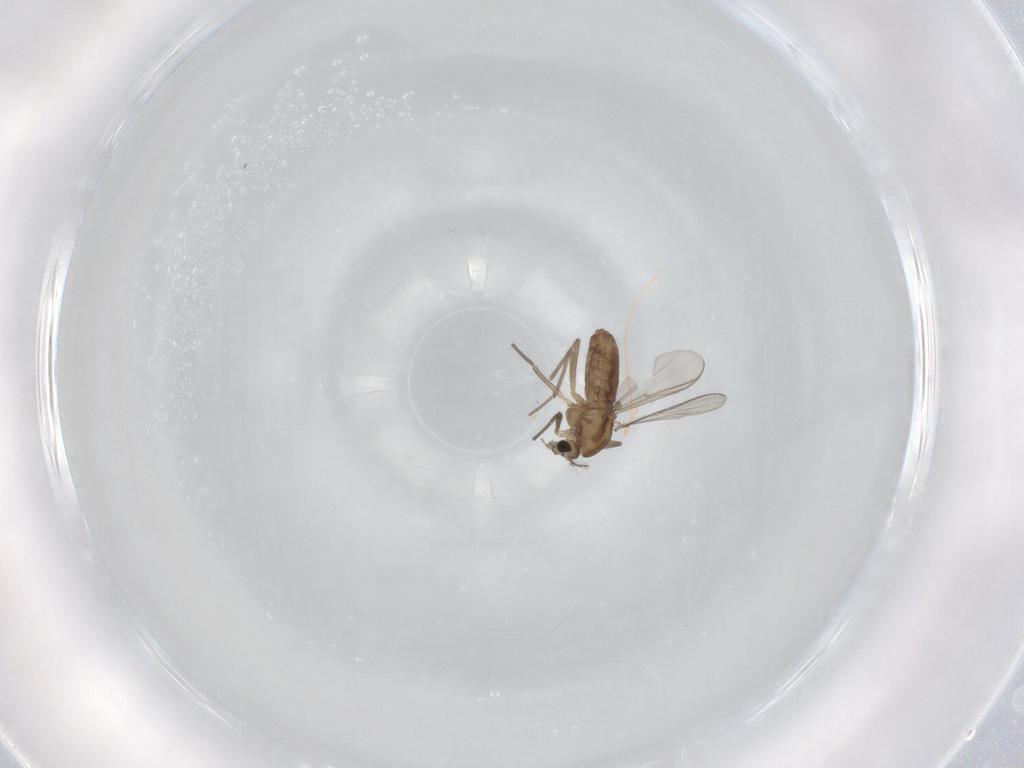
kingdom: Animalia
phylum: Arthropoda
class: Insecta
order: Diptera
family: Chironomidae
